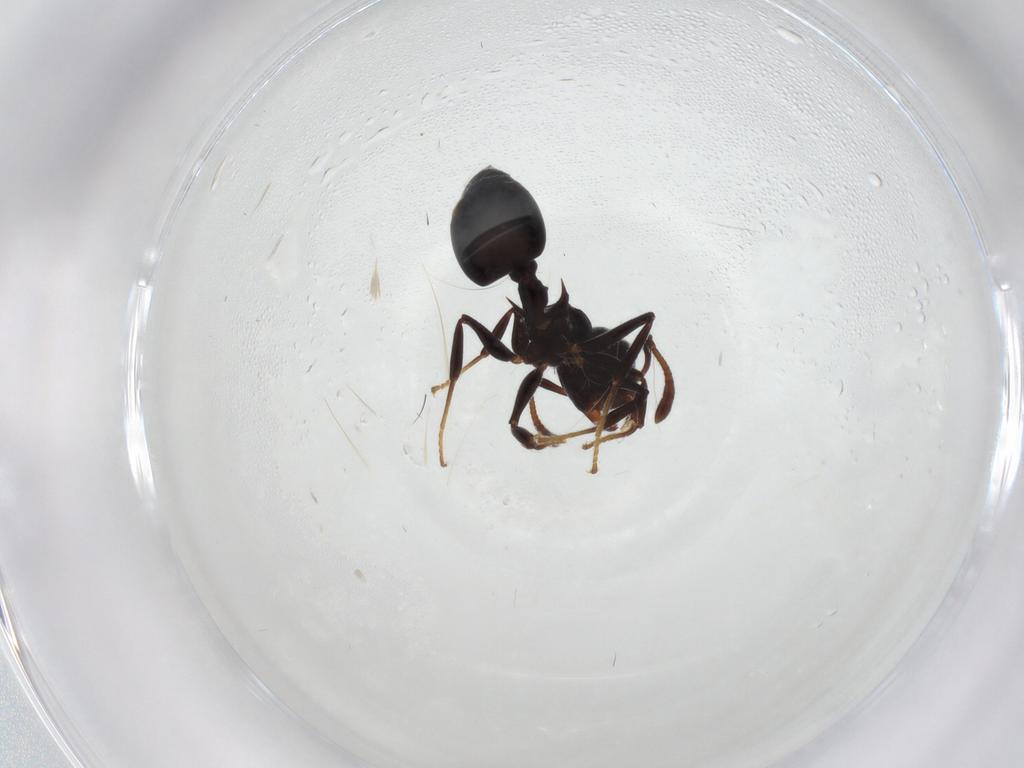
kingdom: Animalia
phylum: Arthropoda
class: Insecta
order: Hymenoptera
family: Formicidae
